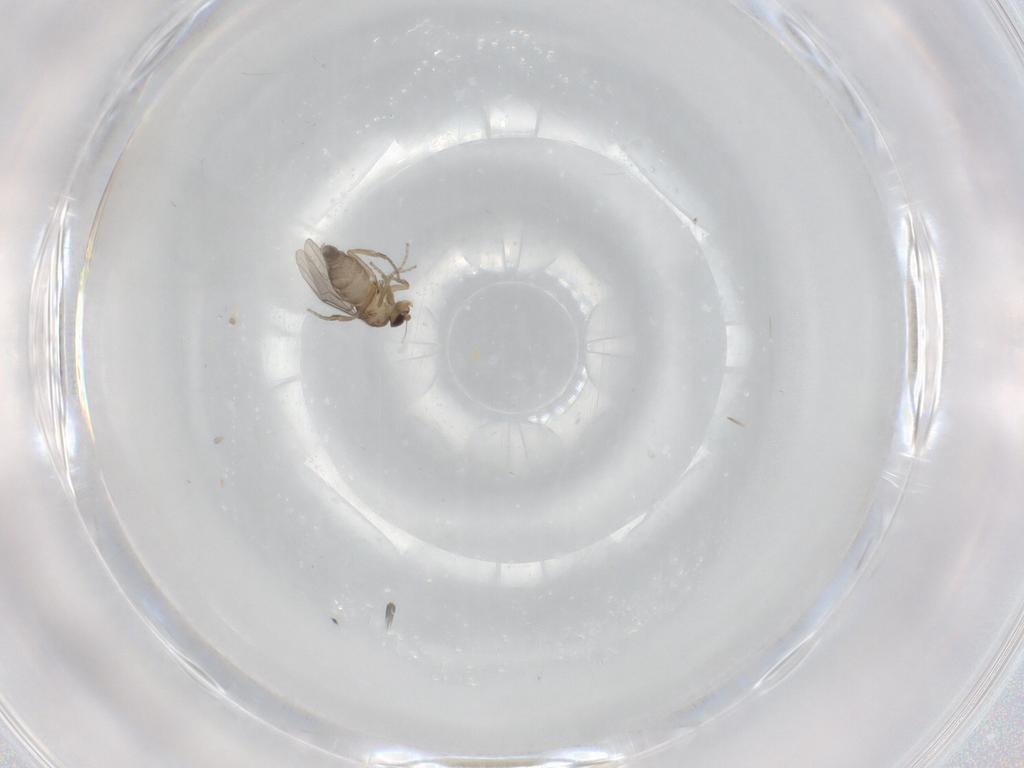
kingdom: Animalia
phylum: Arthropoda
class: Insecta
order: Diptera
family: Phoridae
